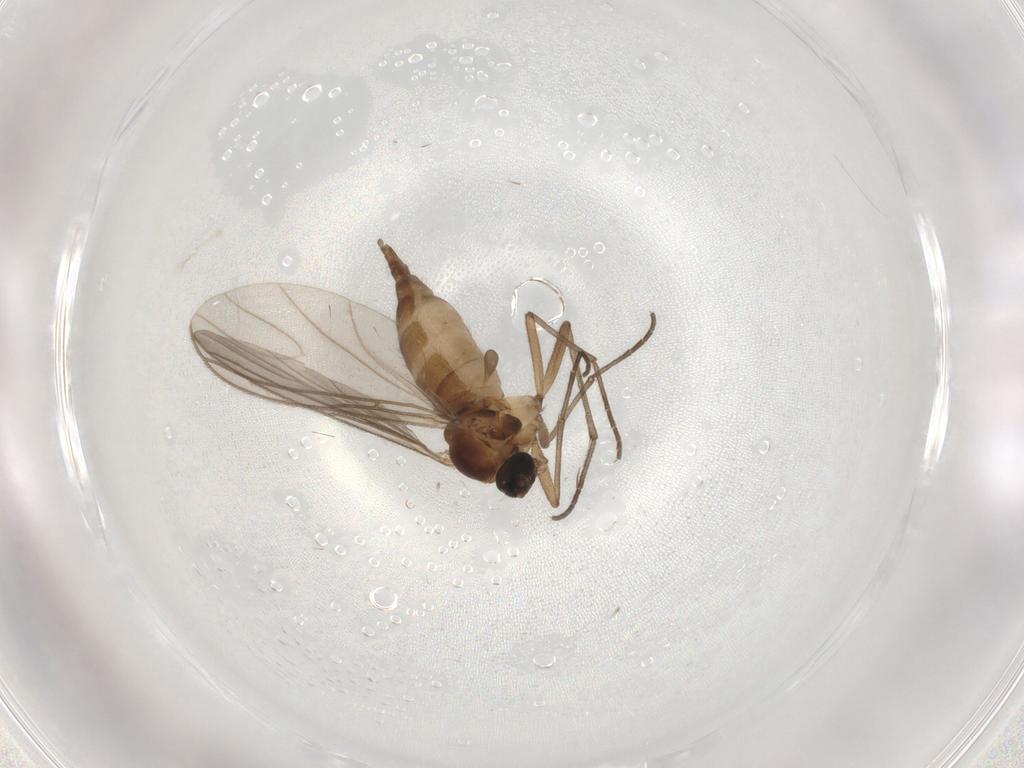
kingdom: Animalia
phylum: Arthropoda
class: Insecta
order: Diptera
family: Sciaridae
